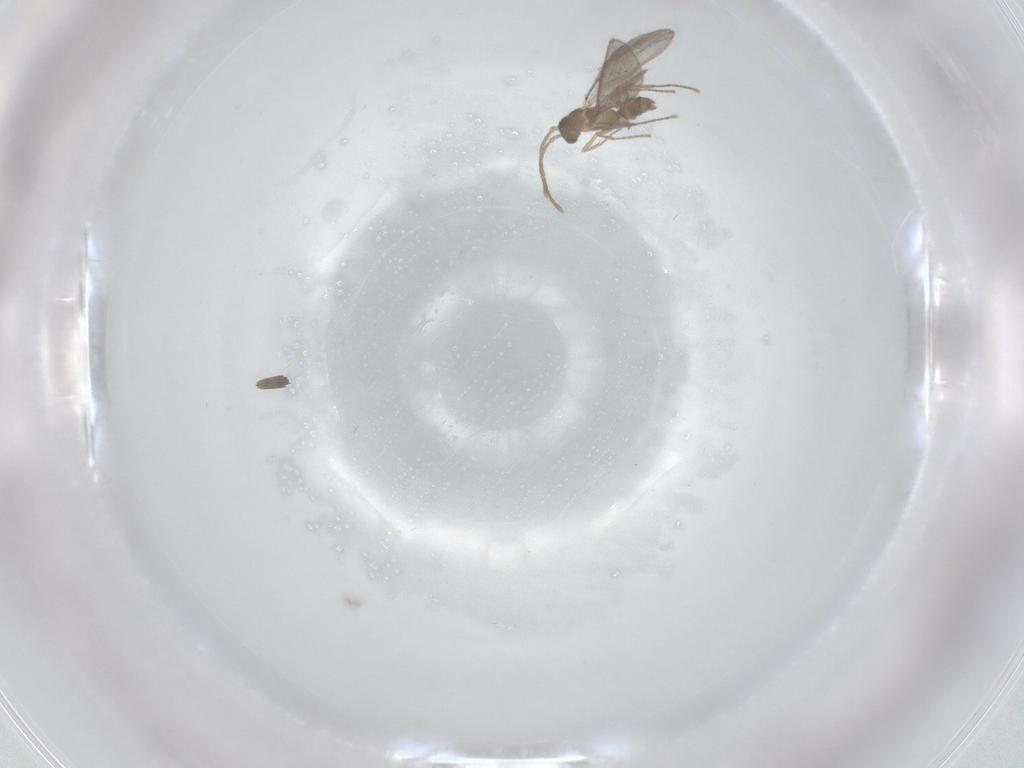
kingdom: Animalia
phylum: Arthropoda
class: Insecta
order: Hymenoptera
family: Formicidae
